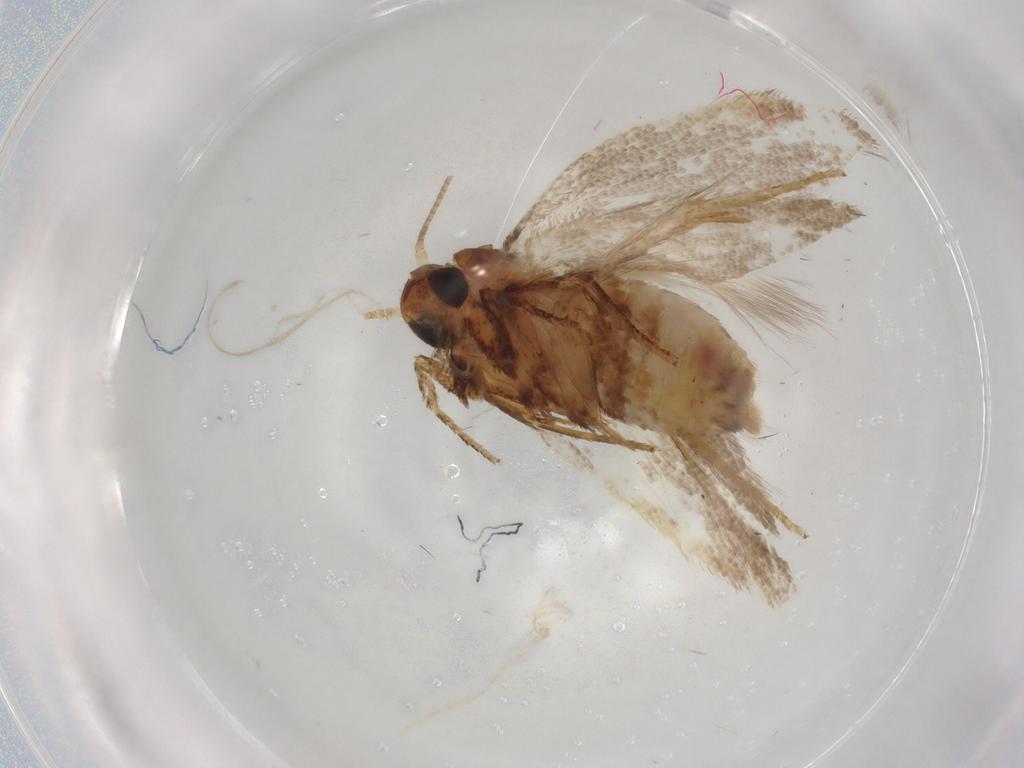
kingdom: Animalia
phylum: Arthropoda
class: Insecta
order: Lepidoptera
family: Oecophoridae
